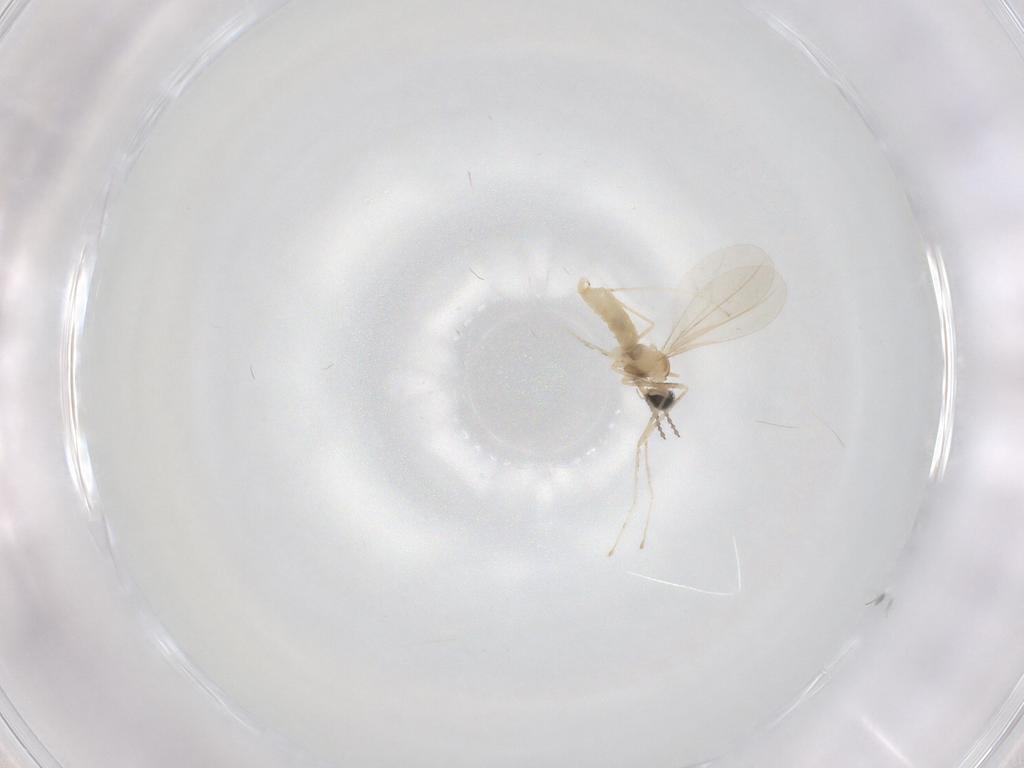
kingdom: Animalia
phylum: Arthropoda
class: Insecta
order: Diptera
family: Cecidomyiidae
